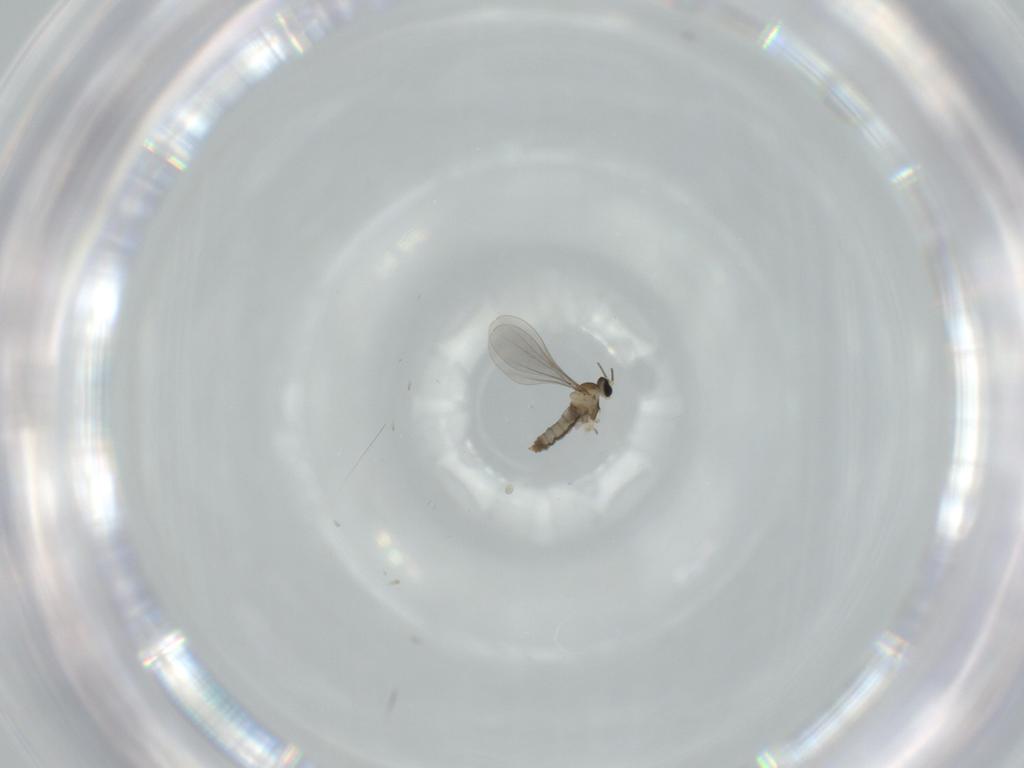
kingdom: Animalia
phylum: Arthropoda
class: Insecta
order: Diptera
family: Cecidomyiidae
